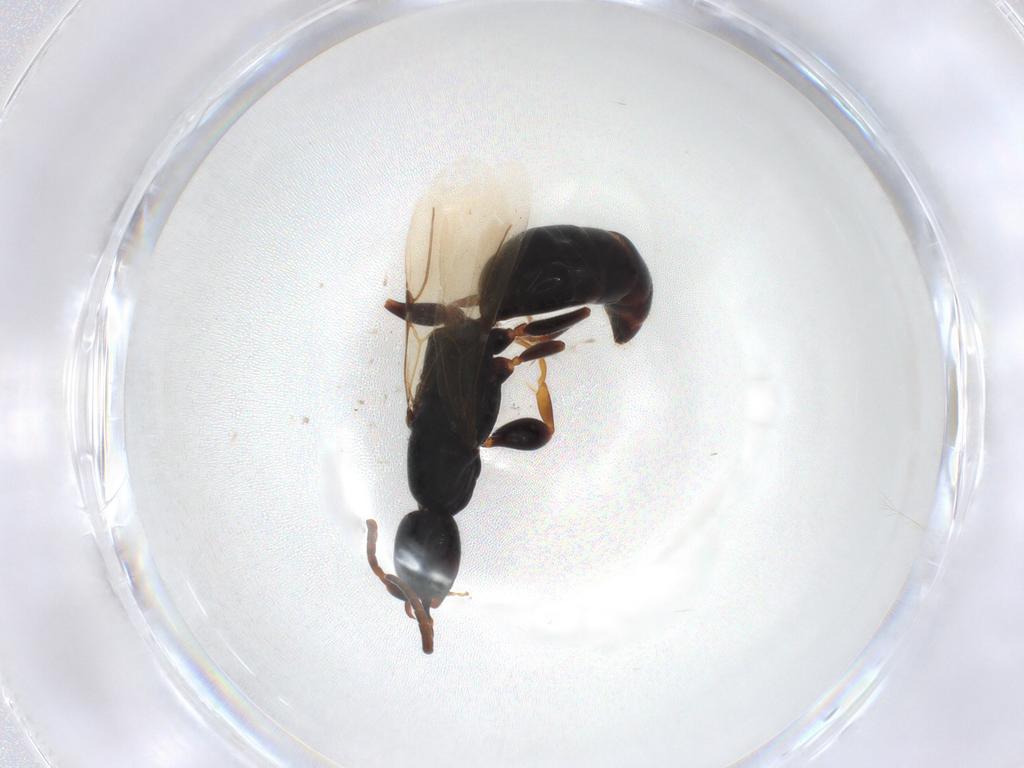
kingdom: Animalia
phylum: Arthropoda
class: Insecta
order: Hymenoptera
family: Bethylidae
